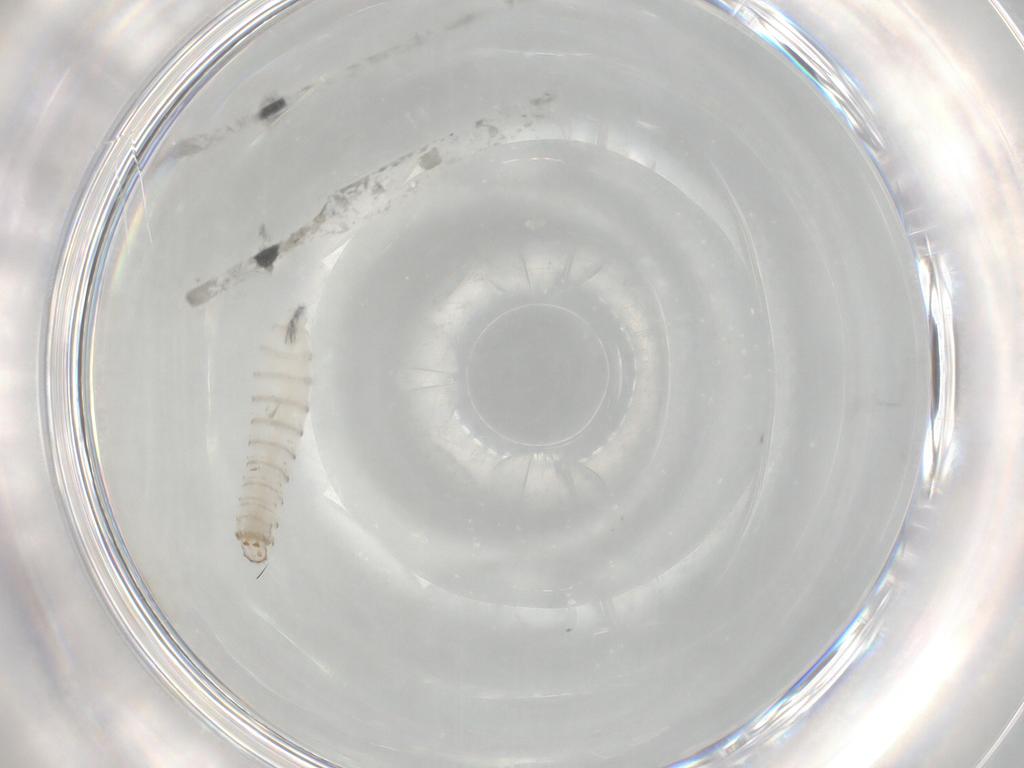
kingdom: Animalia
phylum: Arthropoda
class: Insecta
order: Diptera
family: Sarcophagidae
